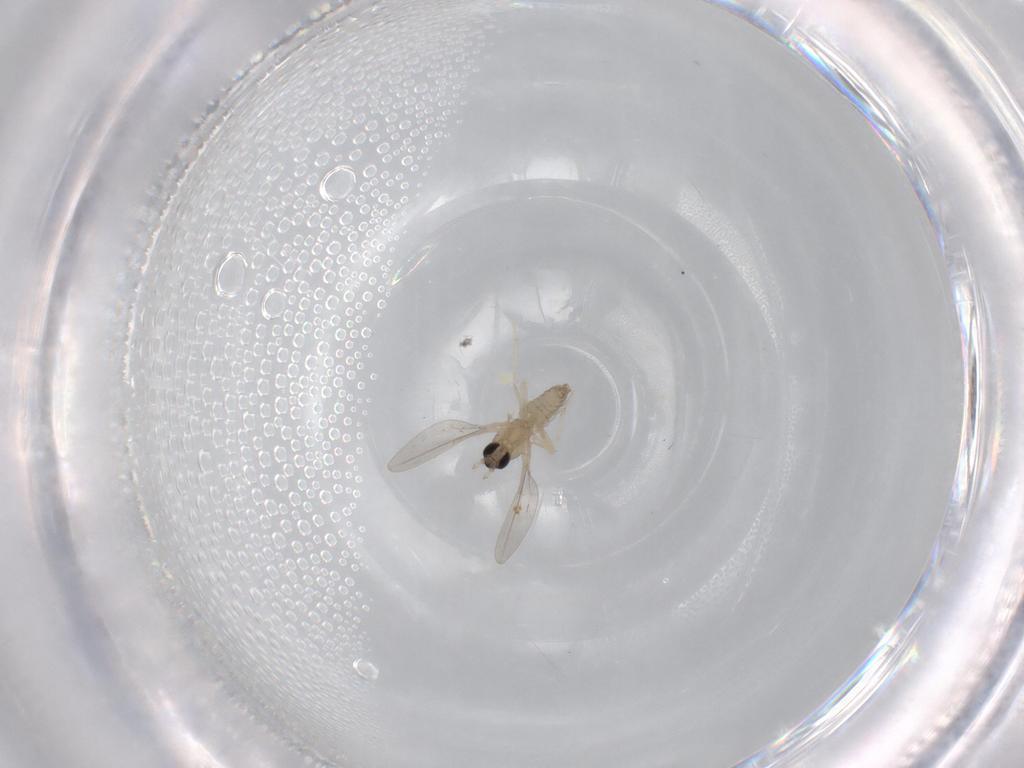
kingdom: Animalia
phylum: Arthropoda
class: Insecta
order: Diptera
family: Cecidomyiidae
